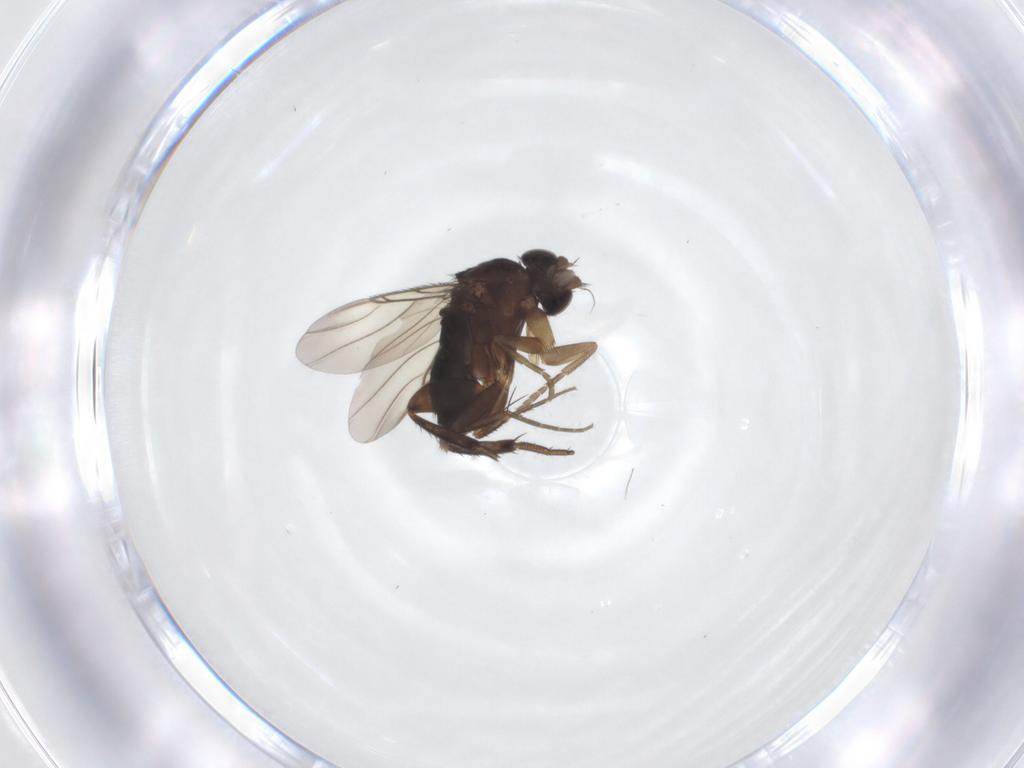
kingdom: Animalia
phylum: Arthropoda
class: Insecta
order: Diptera
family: Phoridae
